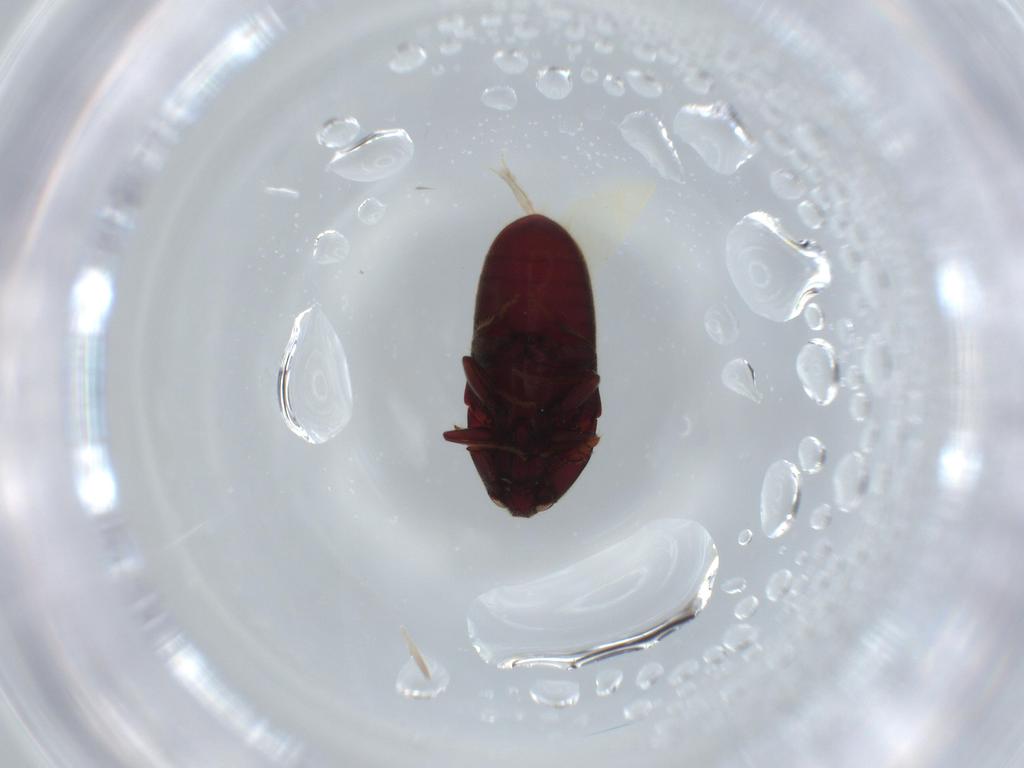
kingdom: Animalia
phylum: Arthropoda
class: Insecta
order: Coleoptera
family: Throscidae
